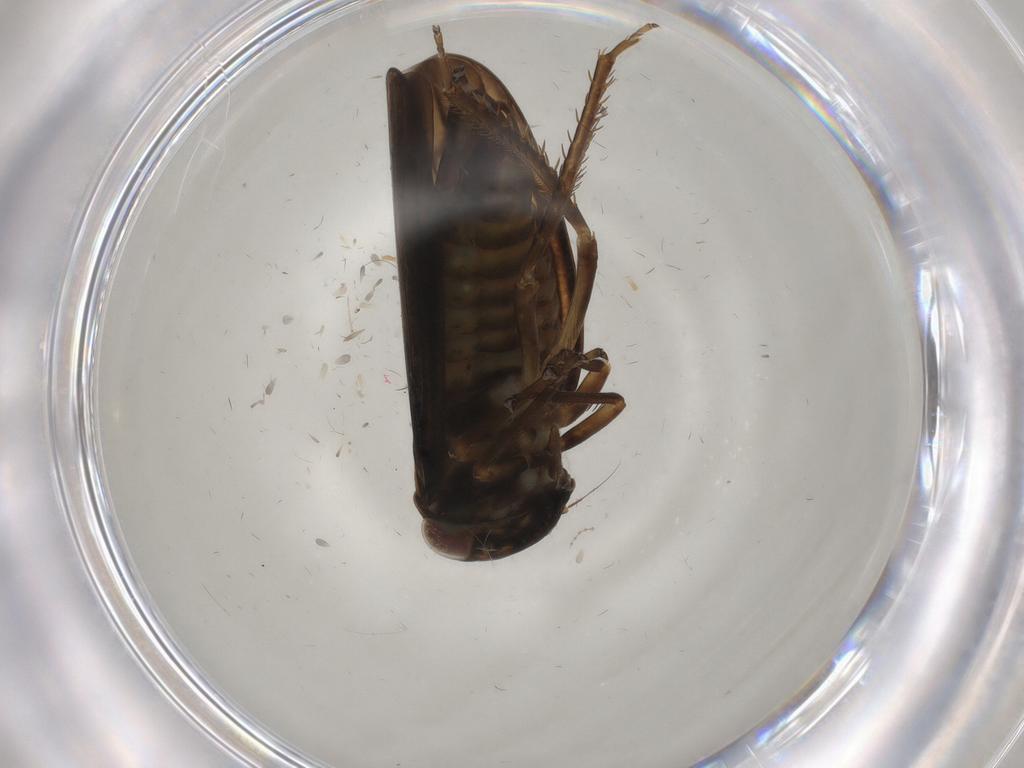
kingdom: Animalia
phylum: Arthropoda
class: Insecta
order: Hemiptera
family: Cicadellidae
